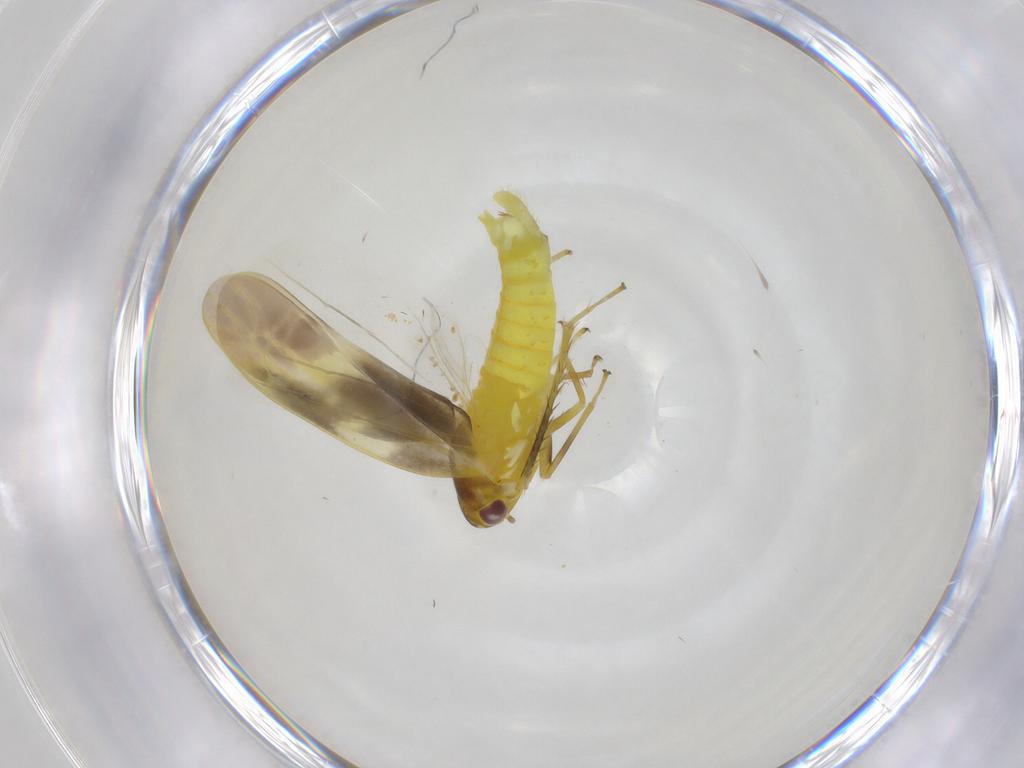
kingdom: Animalia
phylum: Arthropoda
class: Insecta
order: Hemiptera
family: Cicadellidae
